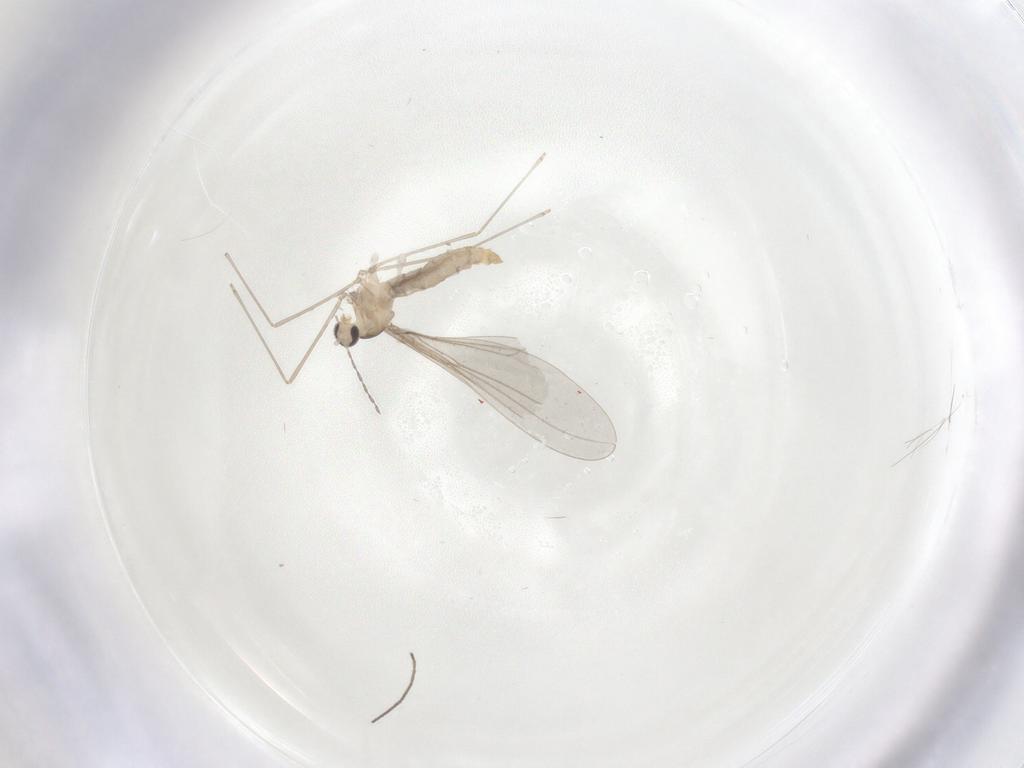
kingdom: Animalia
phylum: Arthropoda
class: Insecta
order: Diptera
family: Cecidomyiidae
